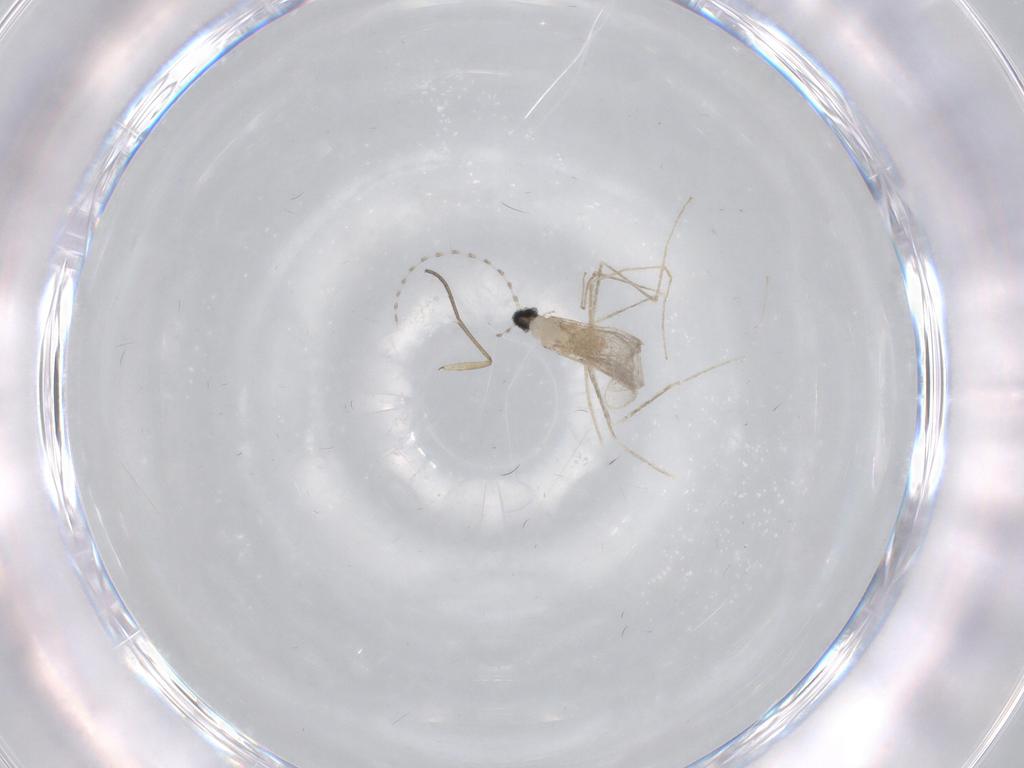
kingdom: Animalia
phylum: Arthropoda
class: Insecta
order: Diptera
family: Cecidomyiidae
